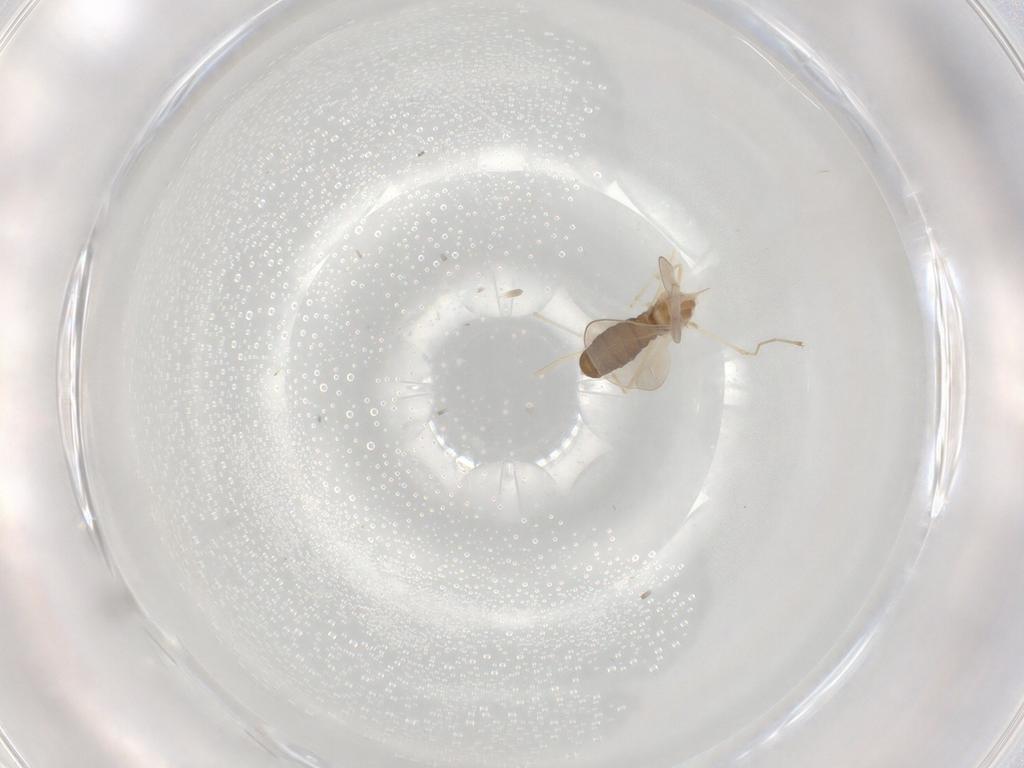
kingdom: Animalia
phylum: Arthropoda
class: Insecta
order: Diptera
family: Cecidomyiidae
